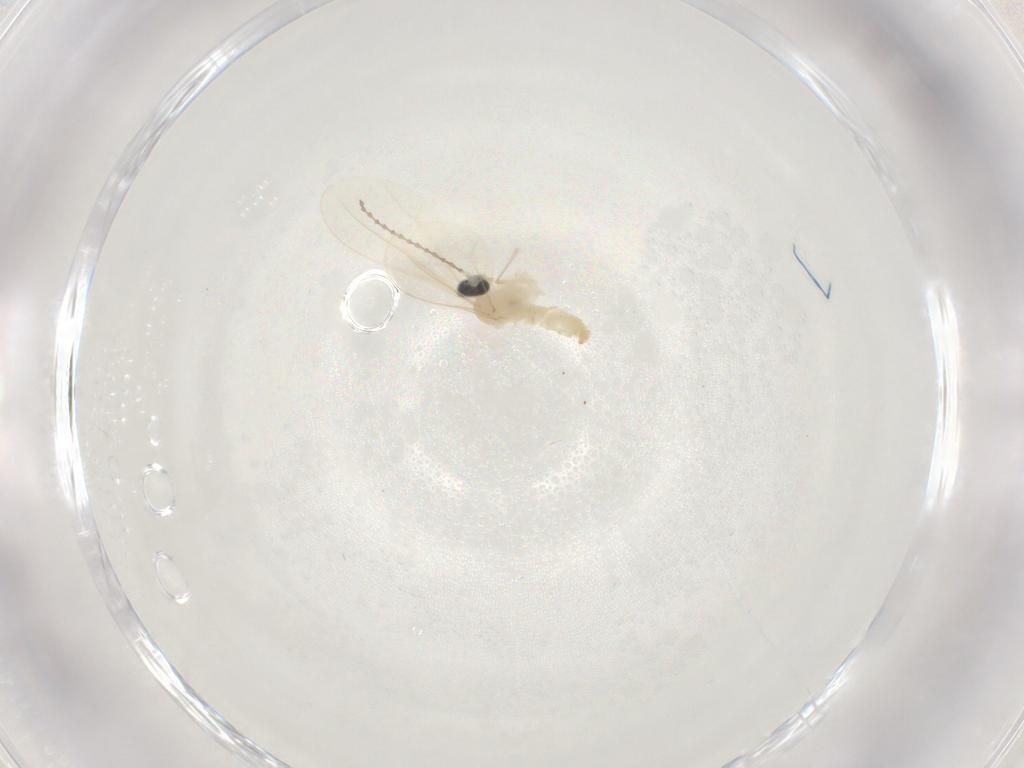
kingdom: Animalia
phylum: Arthropoda
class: Insecta
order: Diptera
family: Cecidomyiidae
